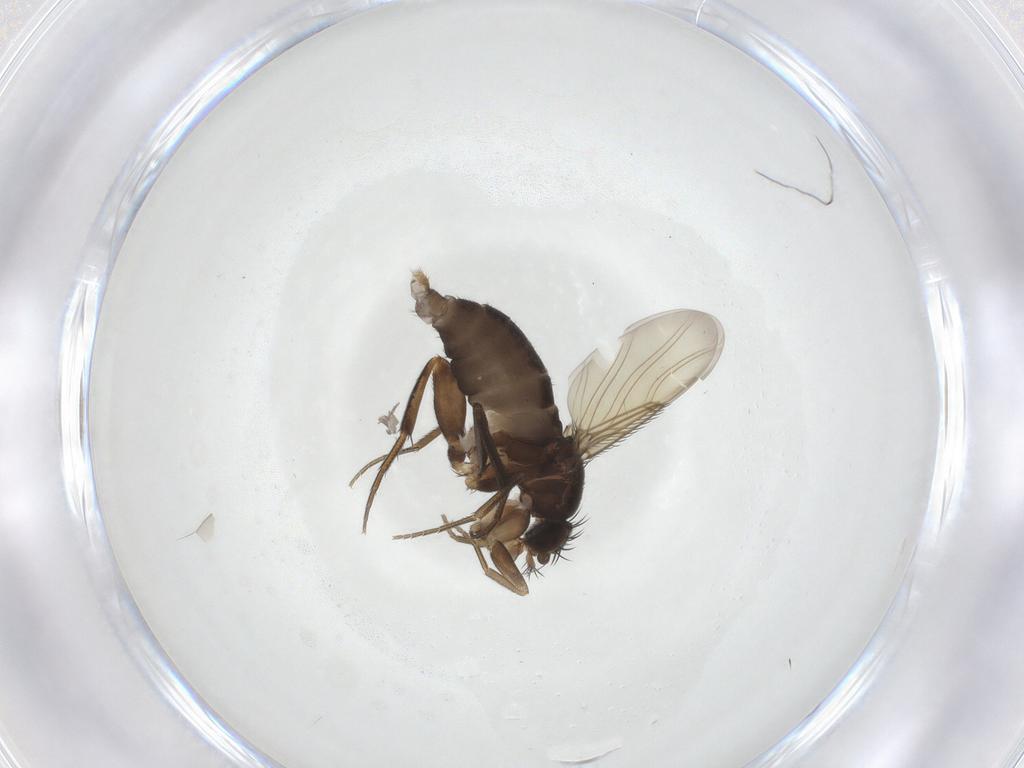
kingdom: Animalia
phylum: Arthropoda
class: Insecta
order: Diptera
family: Phoridae
